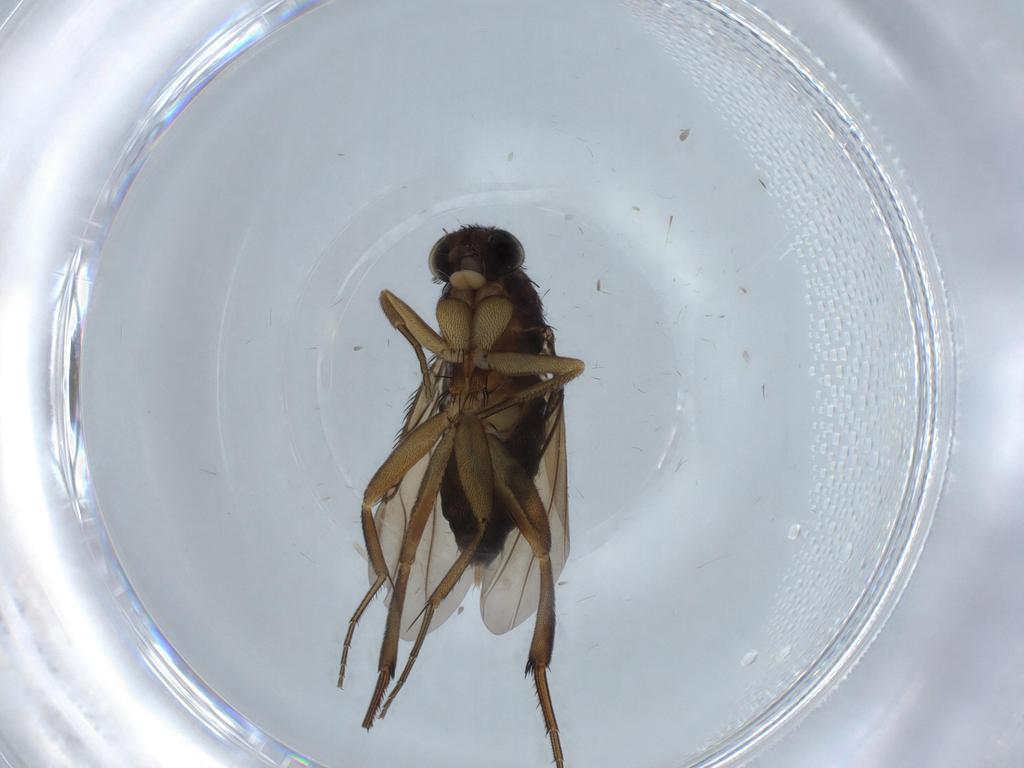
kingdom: Animalia
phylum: Arthropoda
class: Insecta
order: Diptera
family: Phoridae
